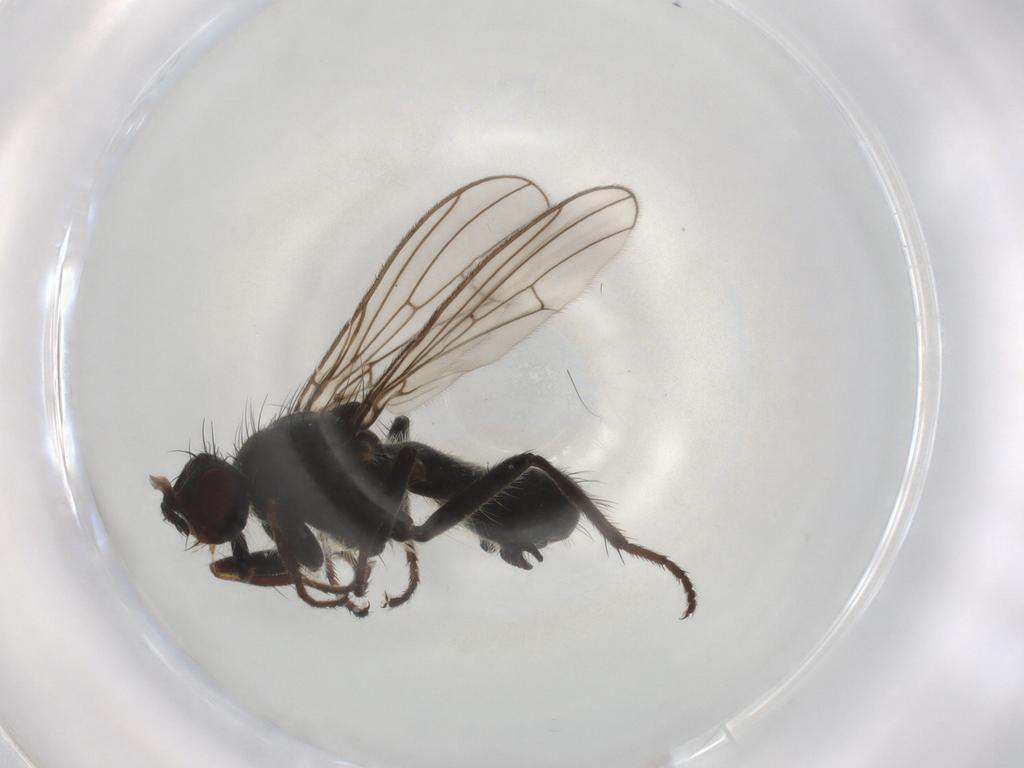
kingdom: Animalia
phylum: Arthropoda
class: Insecta
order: Diptera
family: Scathophagidae
